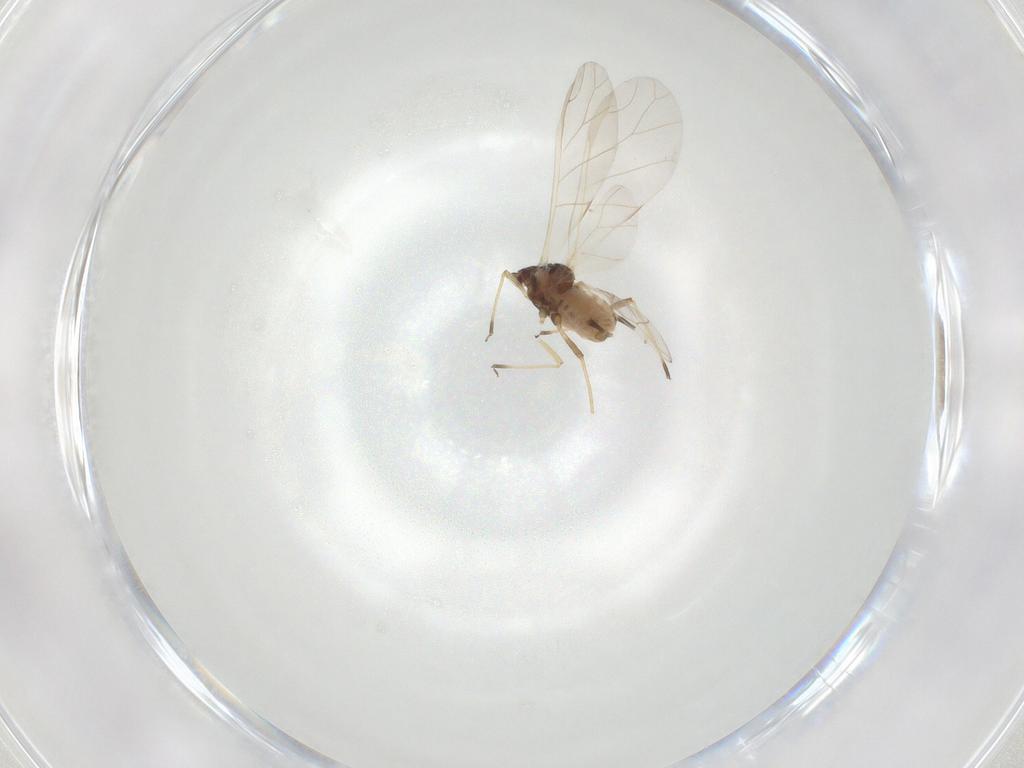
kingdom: Animalia
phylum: Arthropoda
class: Insecta
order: Hemiptera
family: Aphididae
